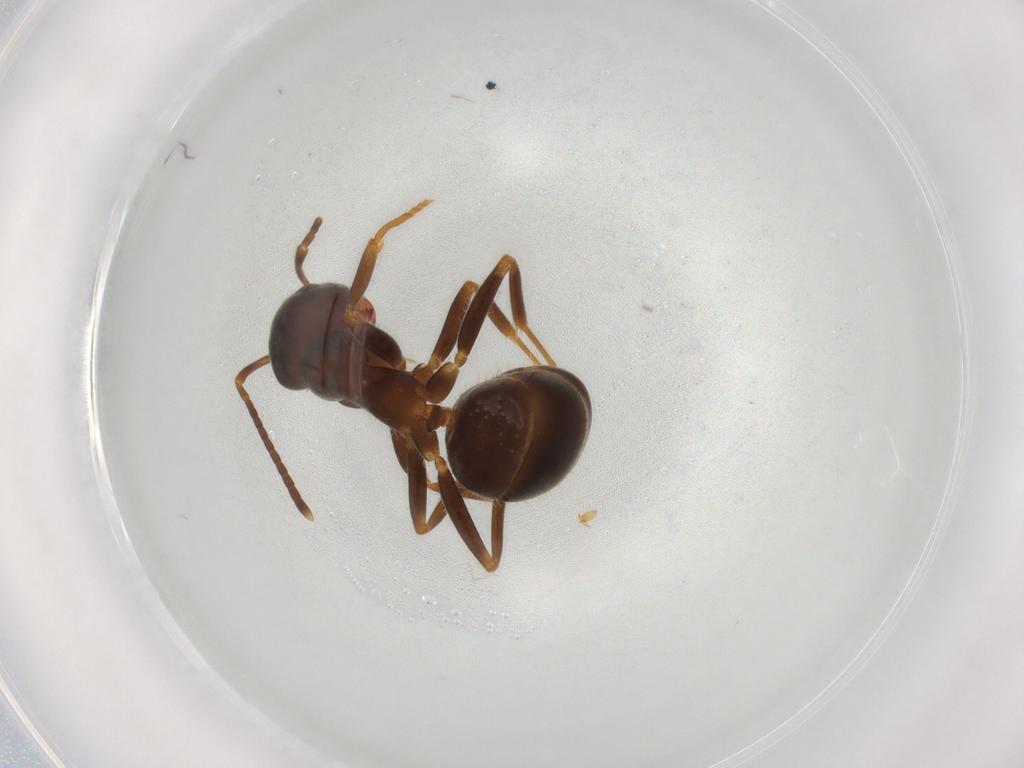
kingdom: Animalia
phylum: Arthropoda
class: Insecta
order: Hymenoptera
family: Formicidae
